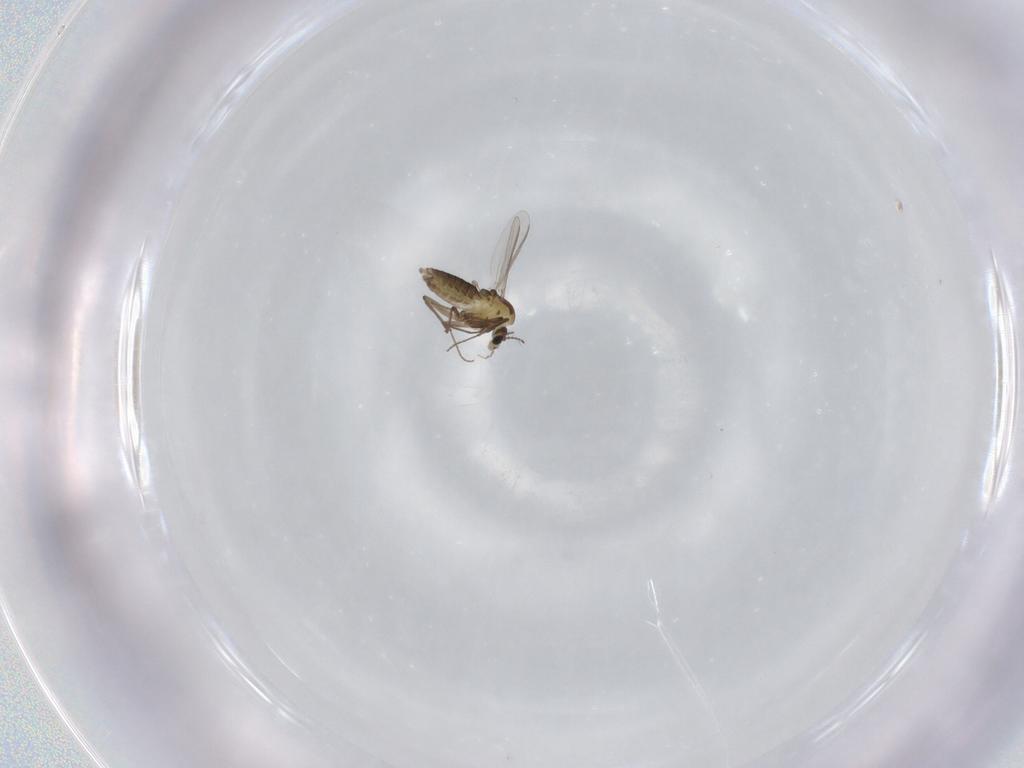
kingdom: Animalia
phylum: Arthropoda
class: Insecta
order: Diptera
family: Chironomidae
